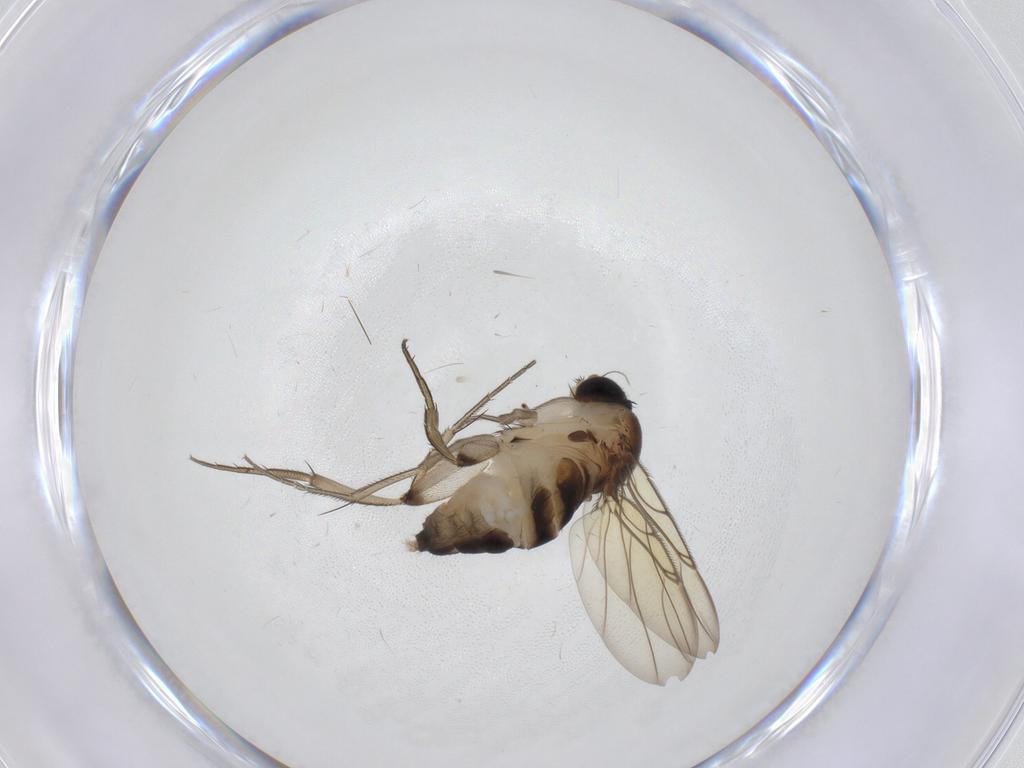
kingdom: Animalia
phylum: Arthropoda
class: Insecta
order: Diptera
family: Phoridae
